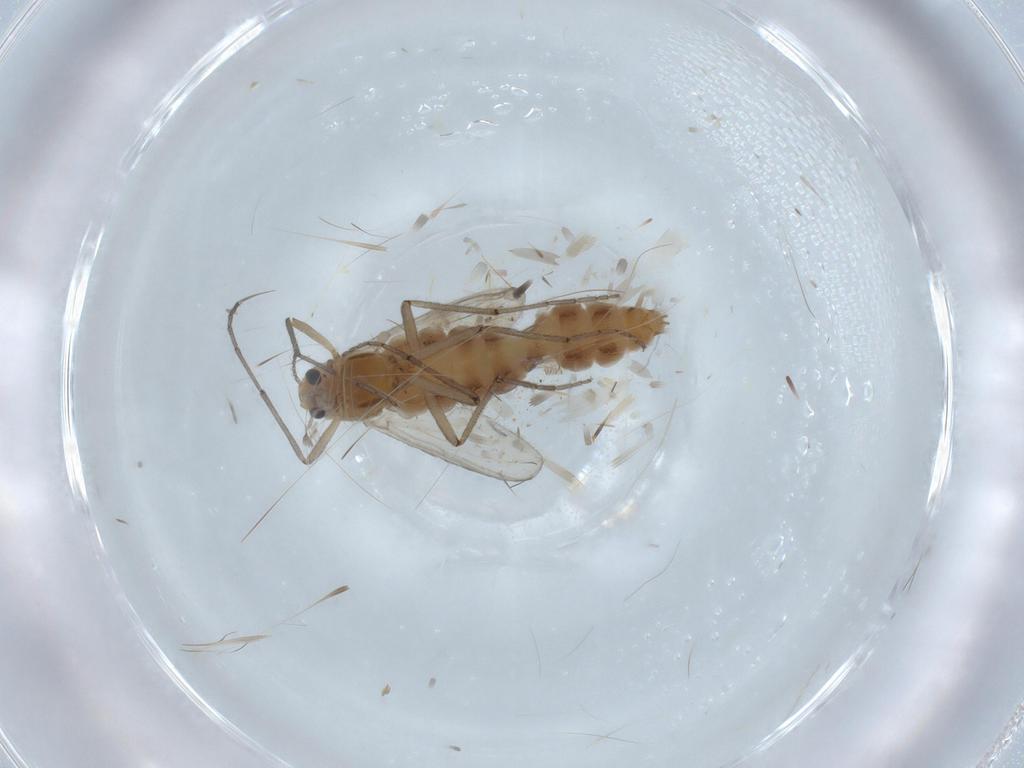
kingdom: Animalia
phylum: Arthropoda
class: Insecta
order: Diptera
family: Chironomidae
